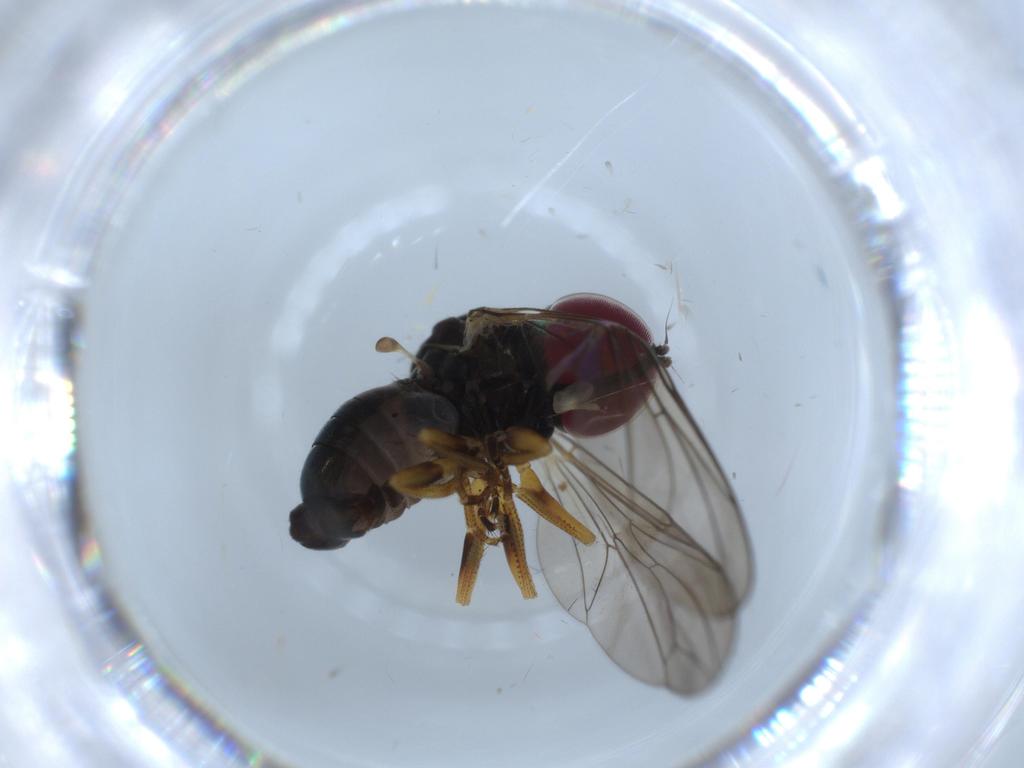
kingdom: Animalia
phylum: Arthropoda
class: Insecta
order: Diptera
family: Pipunculidae
